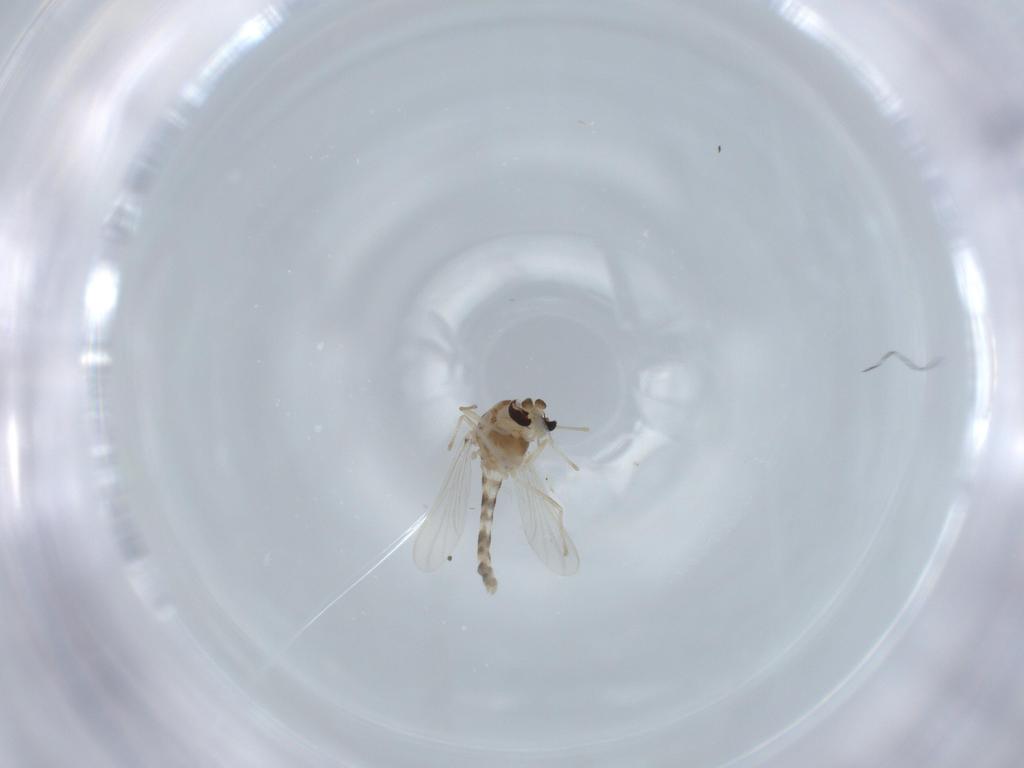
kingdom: Animalia
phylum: Arthropoda
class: Insecta
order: Diptera
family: Chironomidae
